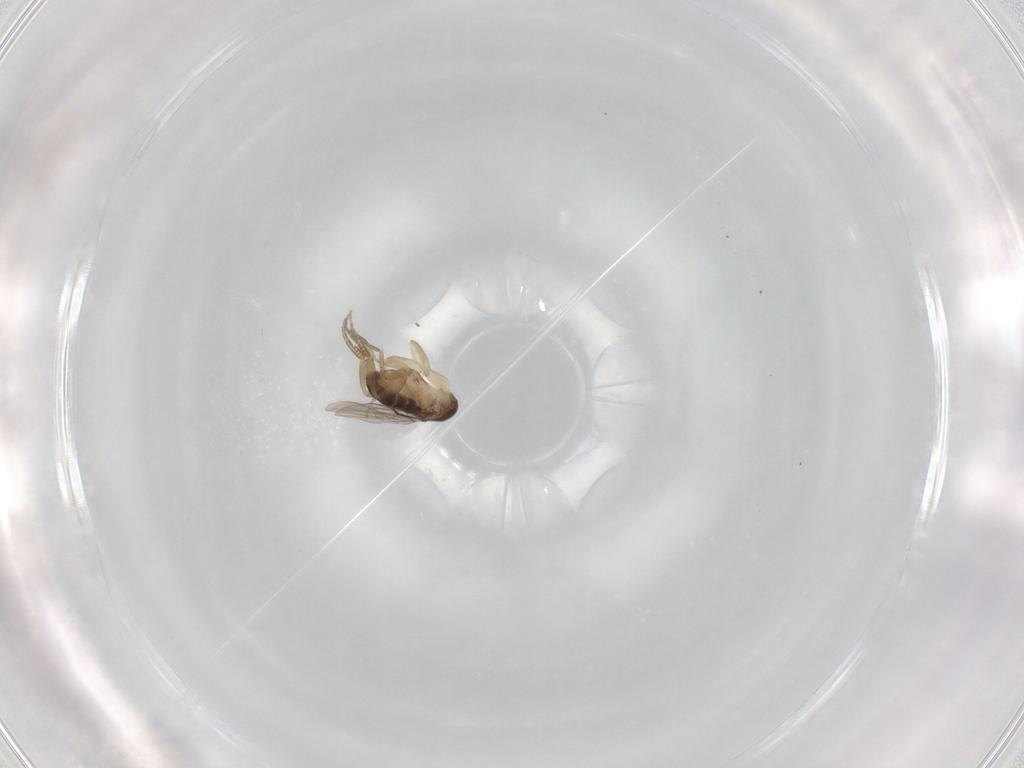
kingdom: Animalia
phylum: Arthropoda
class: Insecta
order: Diptera
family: Phoridae
